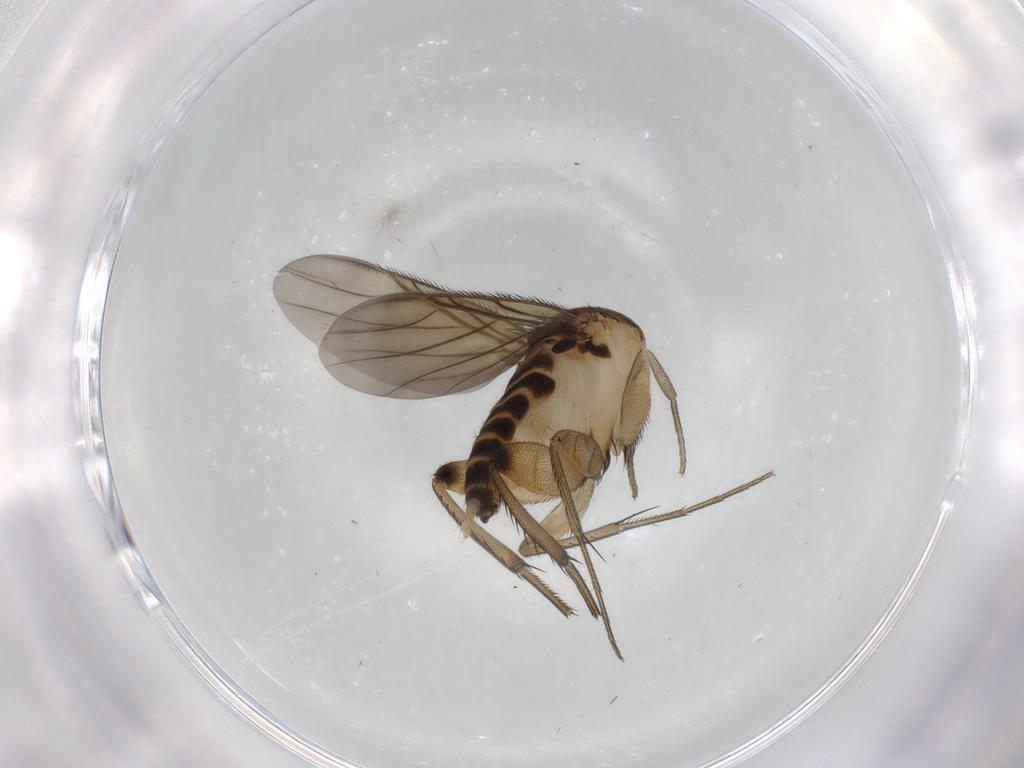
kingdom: Animalia
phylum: Arthropoda
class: Insecta
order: Diptera
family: Phoridae
